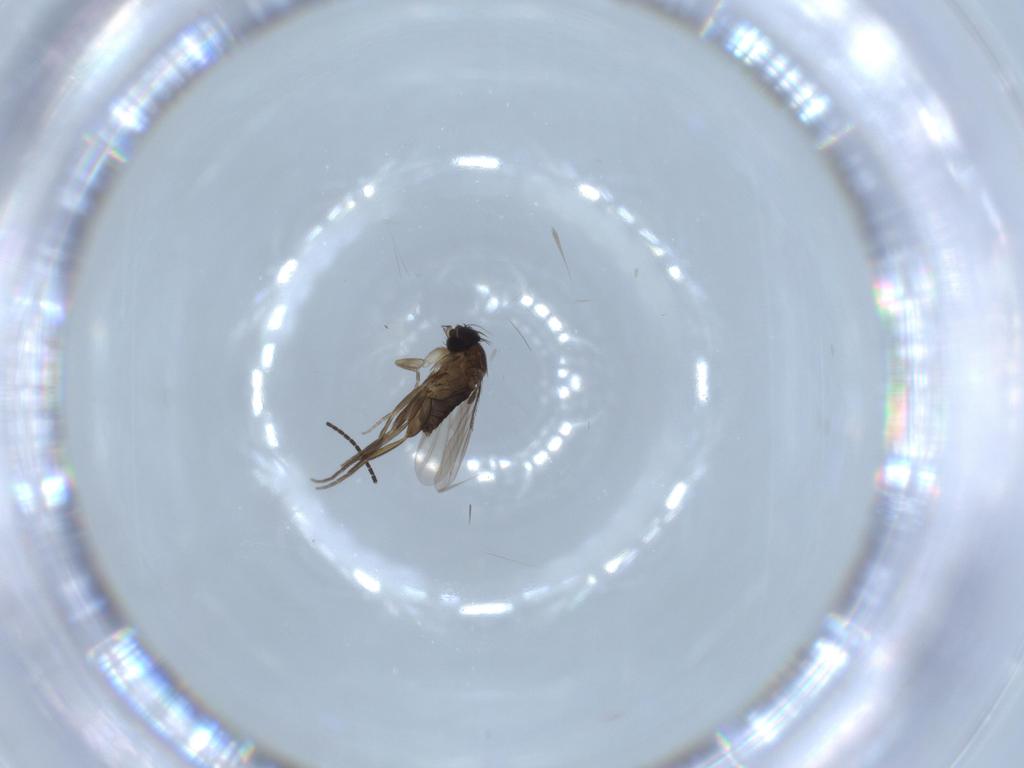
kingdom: Animalia
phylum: Arthropoda
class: Insecta
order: Diptera
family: Phoridae
